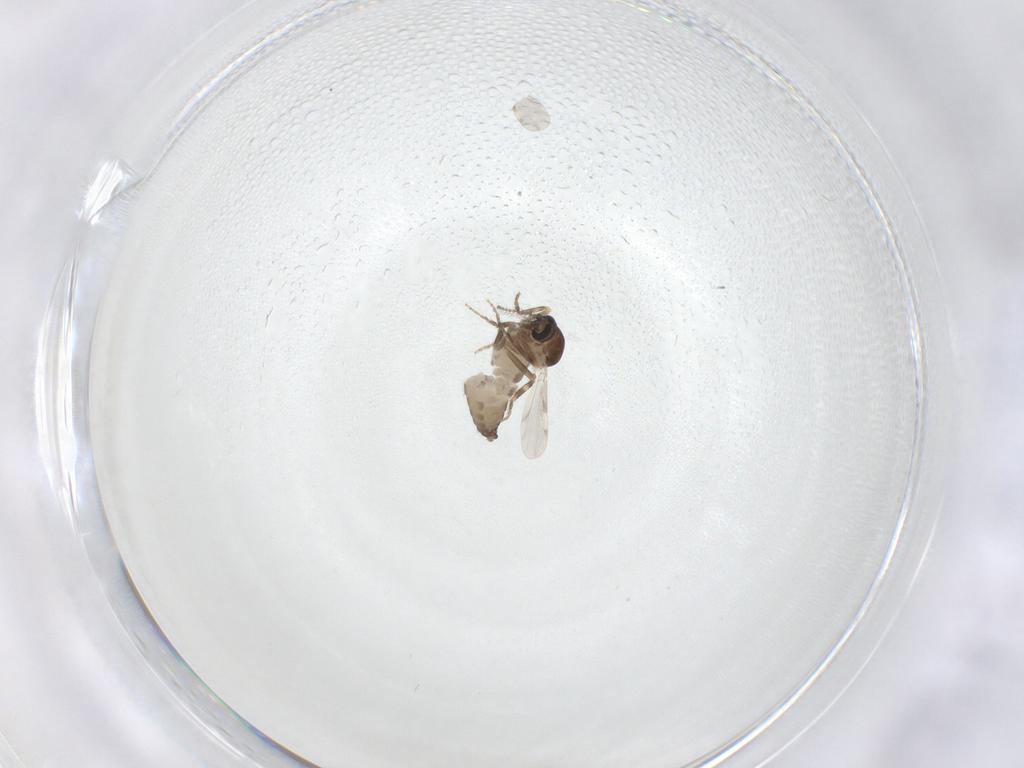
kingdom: Animalia
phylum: Arthropoda
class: Insecta
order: Diptera
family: Ceratopogonidae
